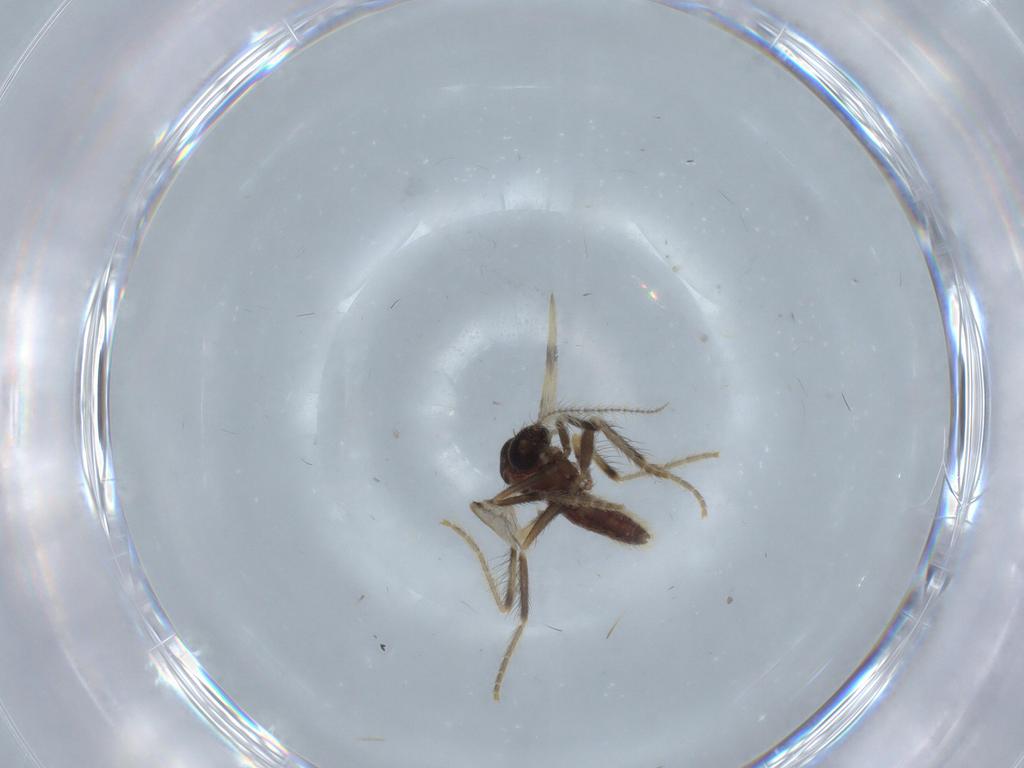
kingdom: Animalia
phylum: Arthropoda
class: Insecta
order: Diptera
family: Corethrellidae
